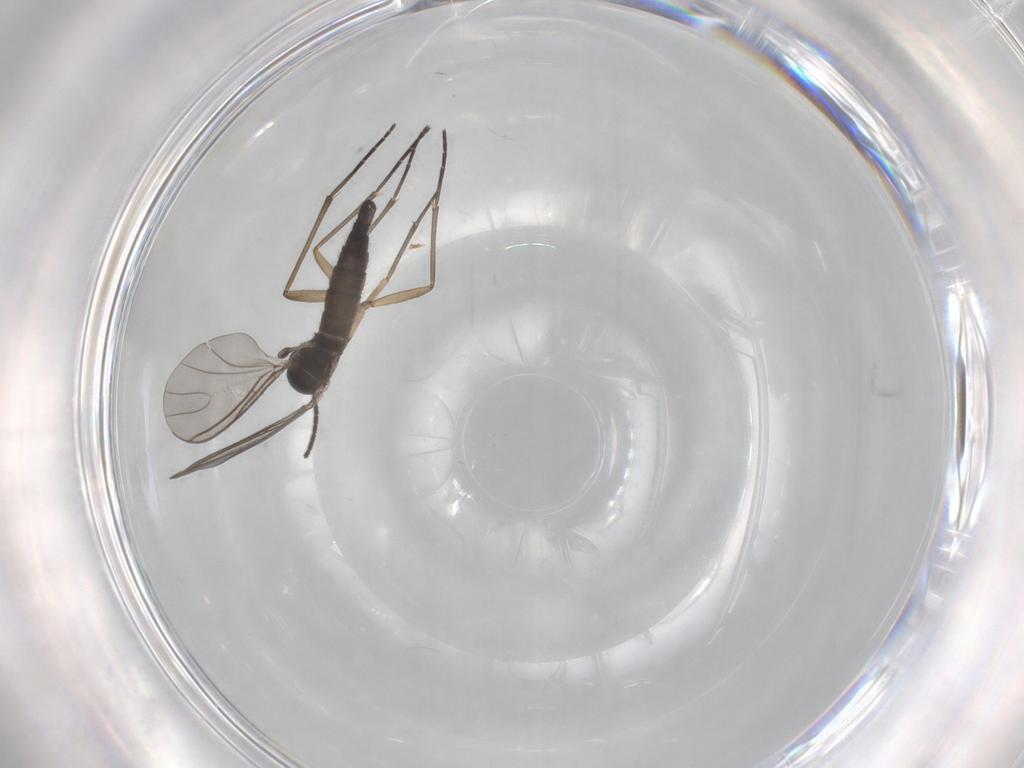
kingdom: Animalia
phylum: Arthropoda
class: Insecta
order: Diptera
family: Sciaridae
